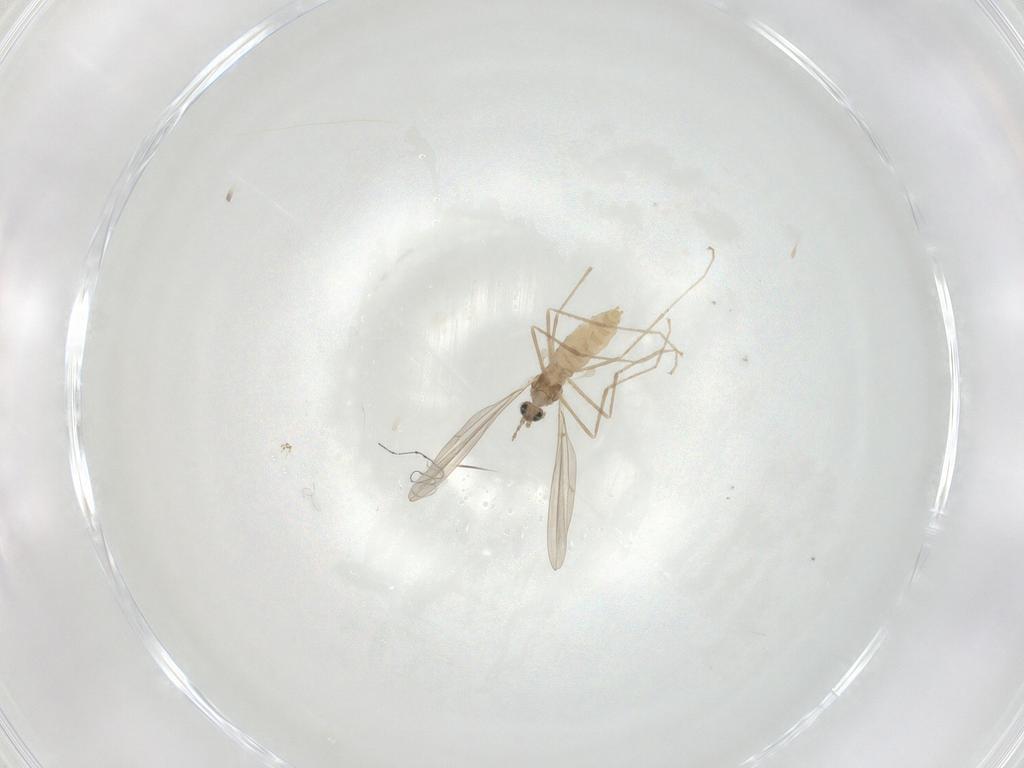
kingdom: Animalia
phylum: Arthropoda
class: Insecta
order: Diptera
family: Cecidomyiidae
